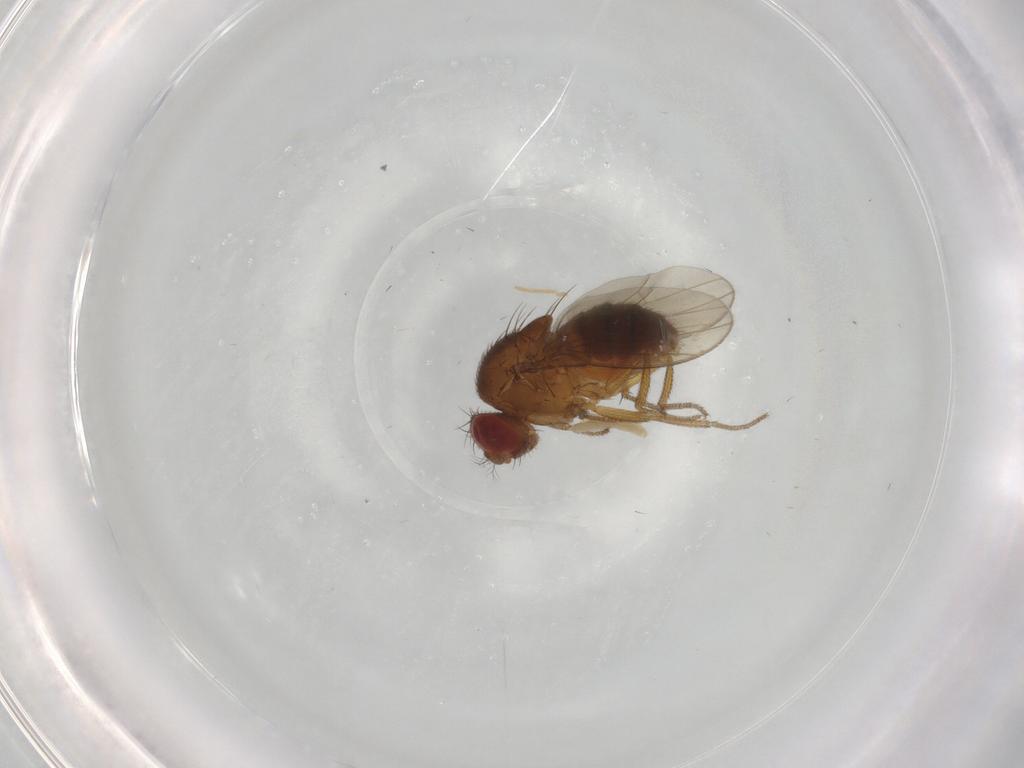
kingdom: Animalia
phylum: Arthropoda
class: Insecta
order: Diptera
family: Drosophilidae
